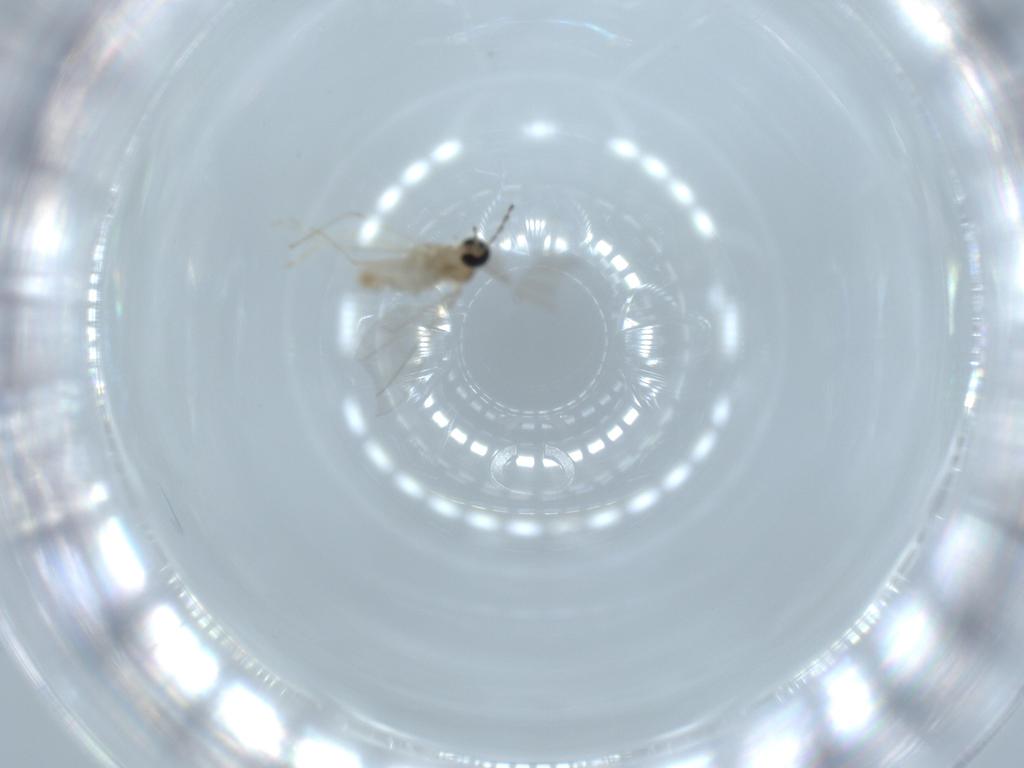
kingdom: Animalia
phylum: Arthropoda
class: Insecta
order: Diptera
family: Cecidomyiidae
